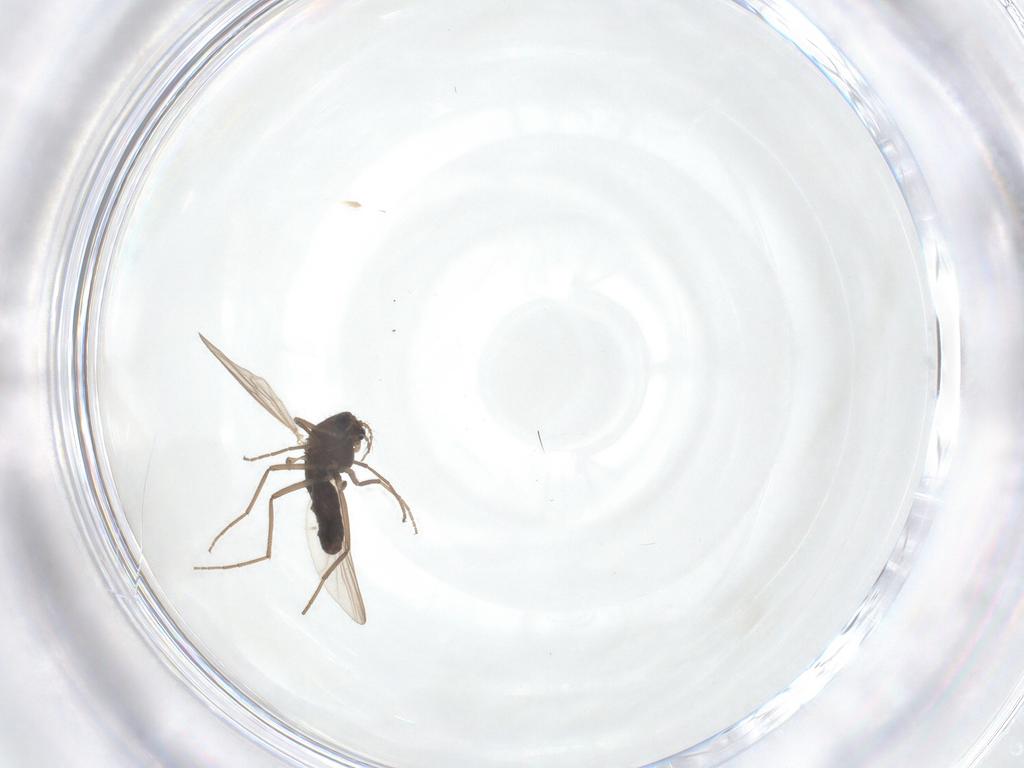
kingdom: Animalia
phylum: Arthropoda
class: Insecta
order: Diptera
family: Chironomidae
